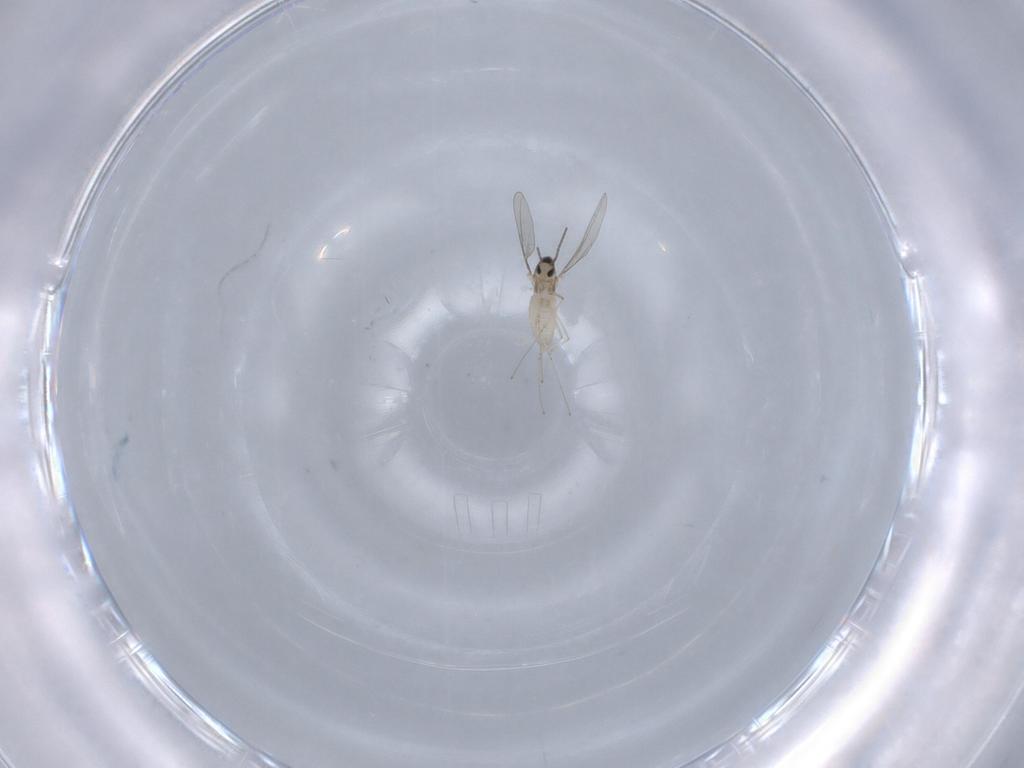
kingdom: Animalia
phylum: Arthropoda
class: Insecta
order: Diptera
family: Cecidomyiidae
